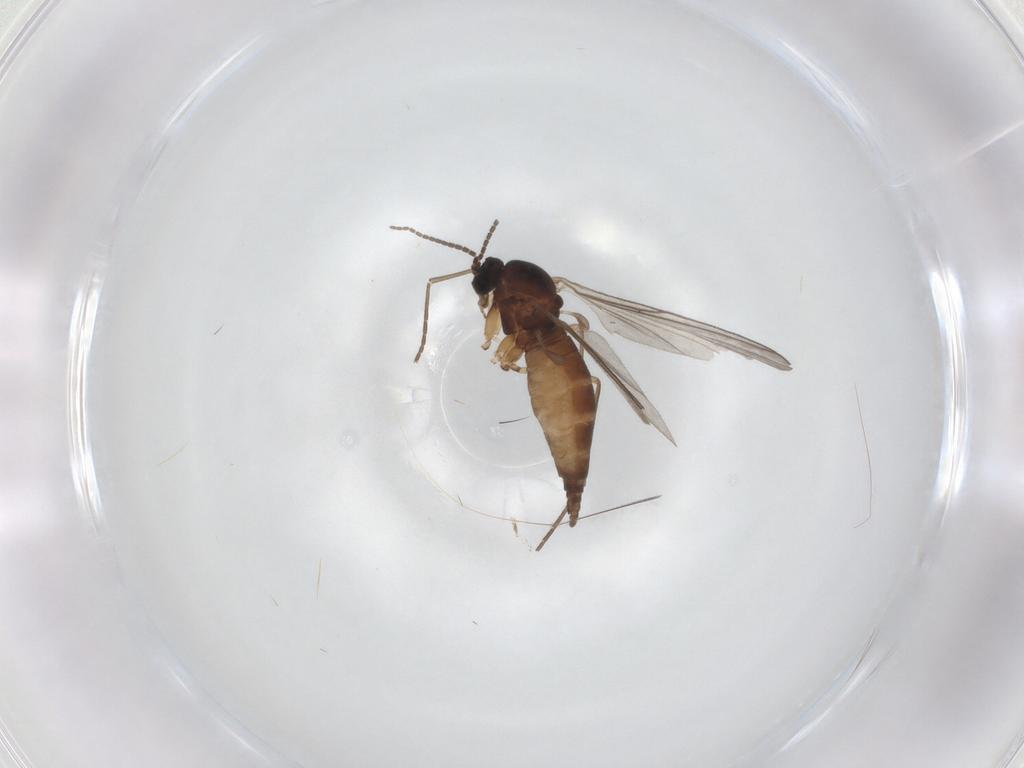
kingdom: Animalia
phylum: Arthropoda
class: Insecta
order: Diptera
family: Sciaridae
